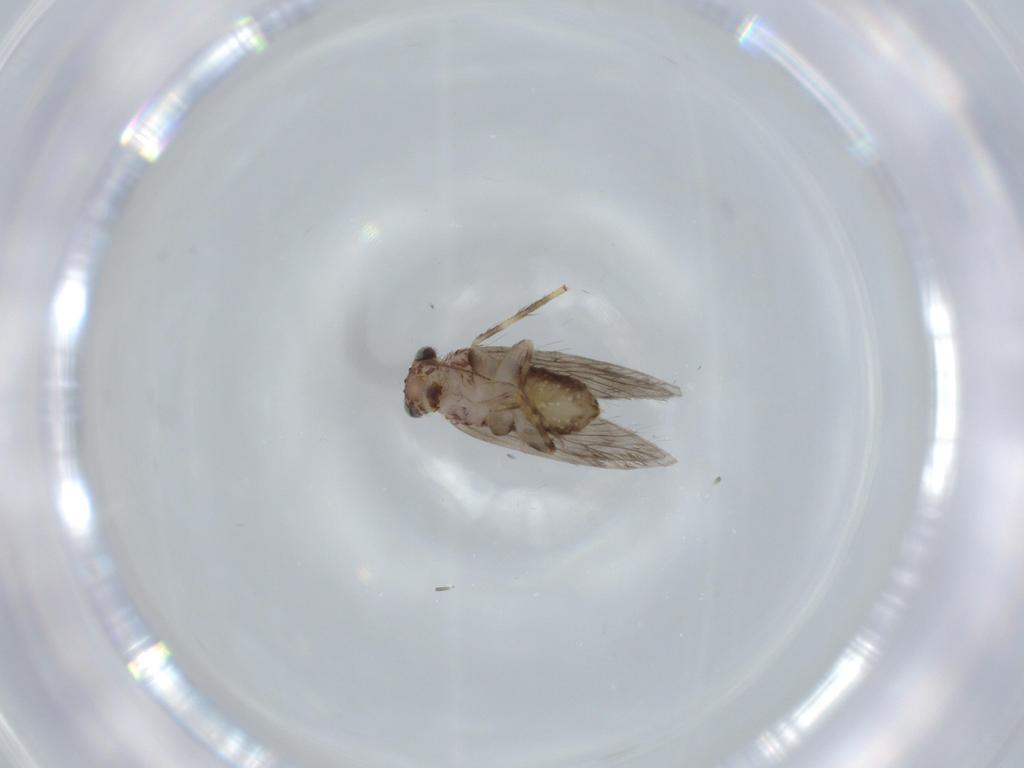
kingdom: Animalia
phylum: Arthropoda
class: Insecta
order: Psocodea
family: Lepidopsocidae
